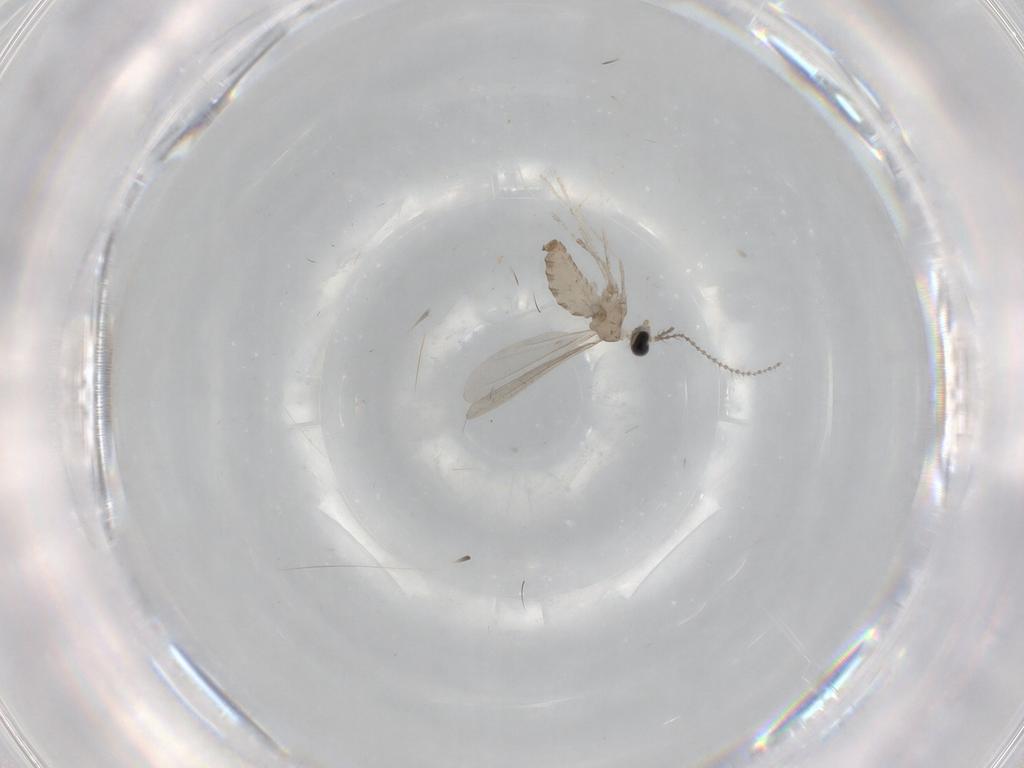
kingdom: Animalia
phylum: Arthropoda
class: Insecta
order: Diptera
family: Cecidomyiidae
